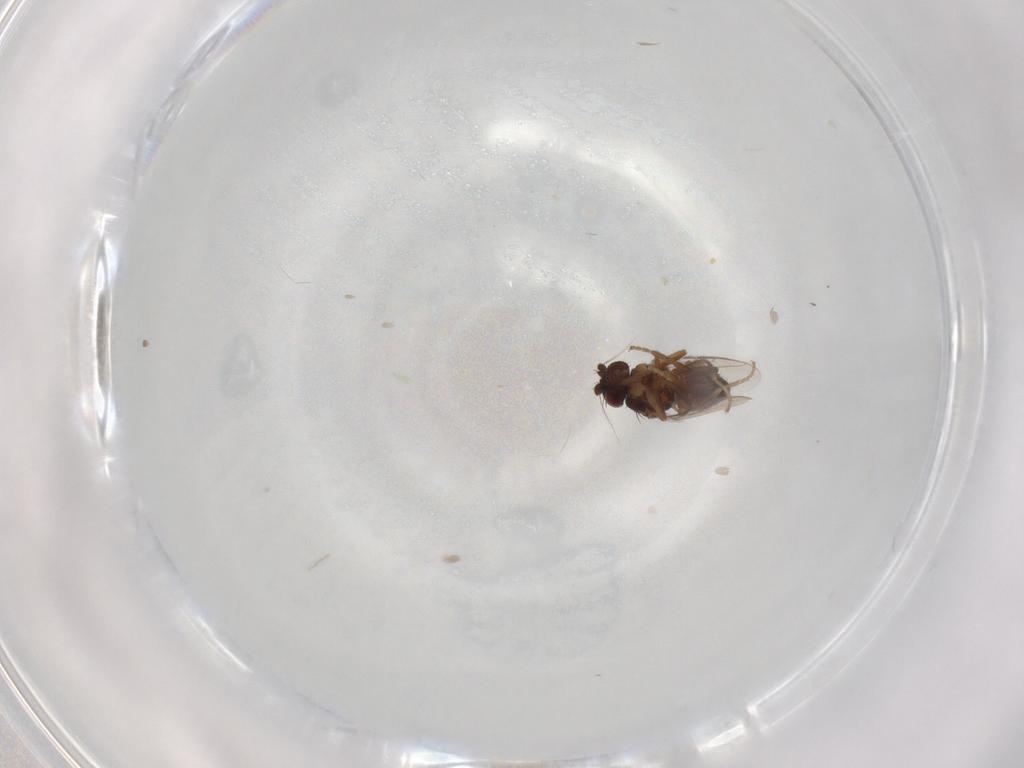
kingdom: Animalia
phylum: Arthropoda
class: Insecta
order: Diptera
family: Sphaeroceridae
